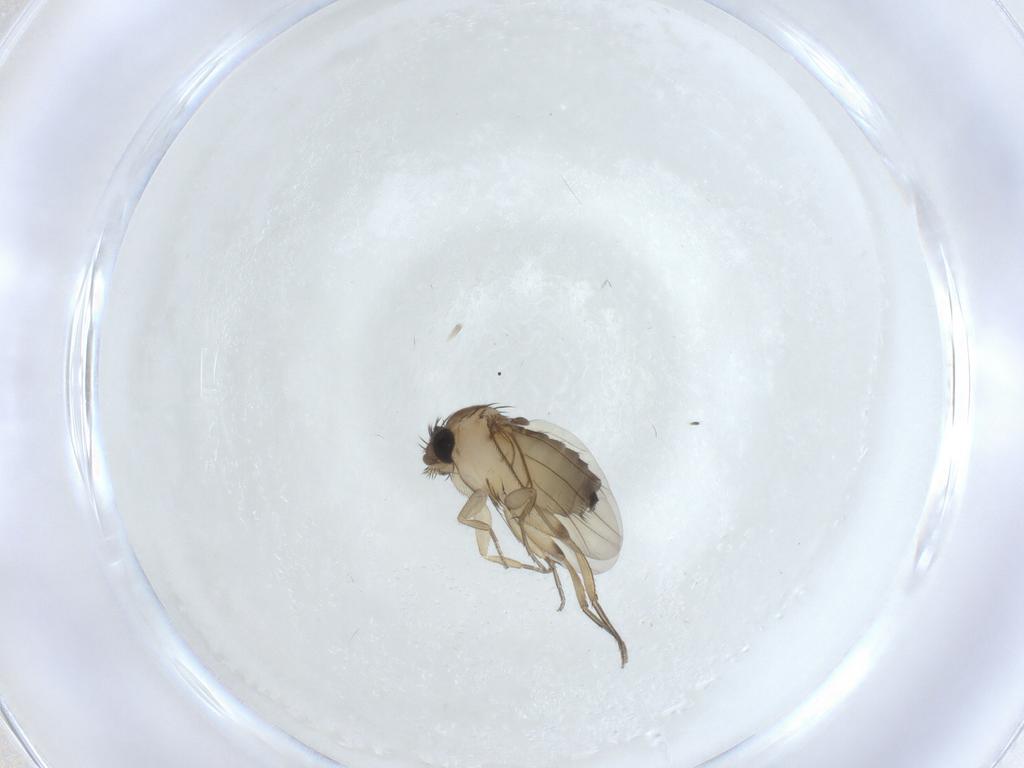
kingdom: Animalia
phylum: Arthropoda
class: Insecta
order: Diptera
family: Phoridae
